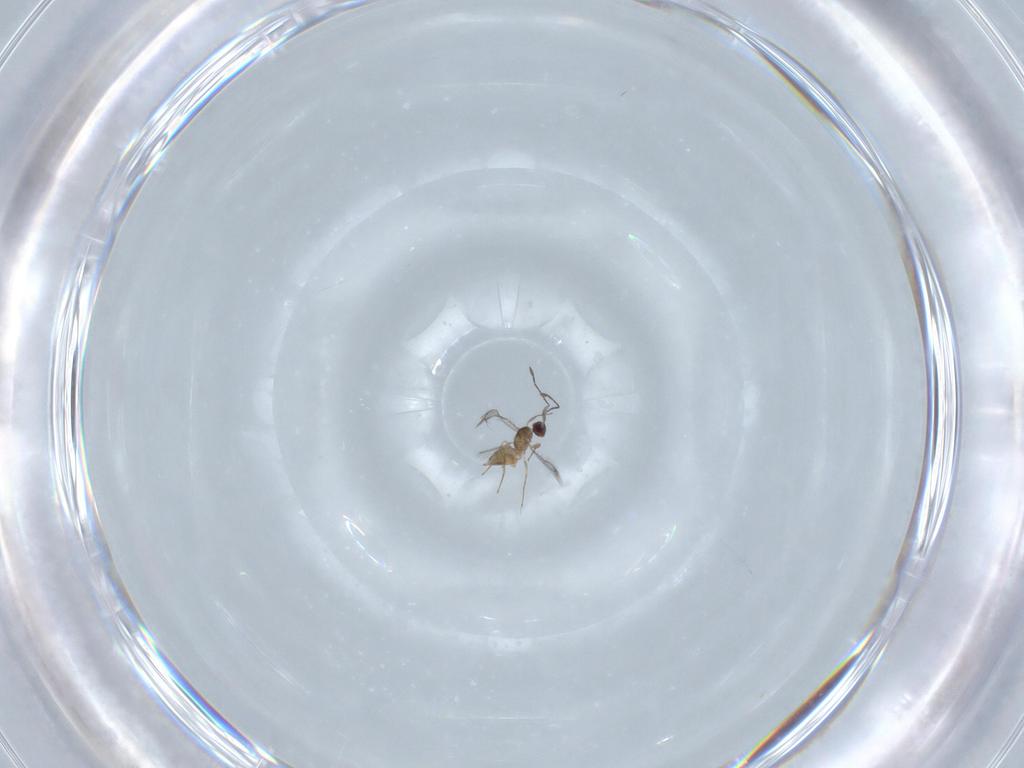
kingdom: Animalia
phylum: Arthropoda
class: Insecta
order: Hymenoptera
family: Mymaridae
